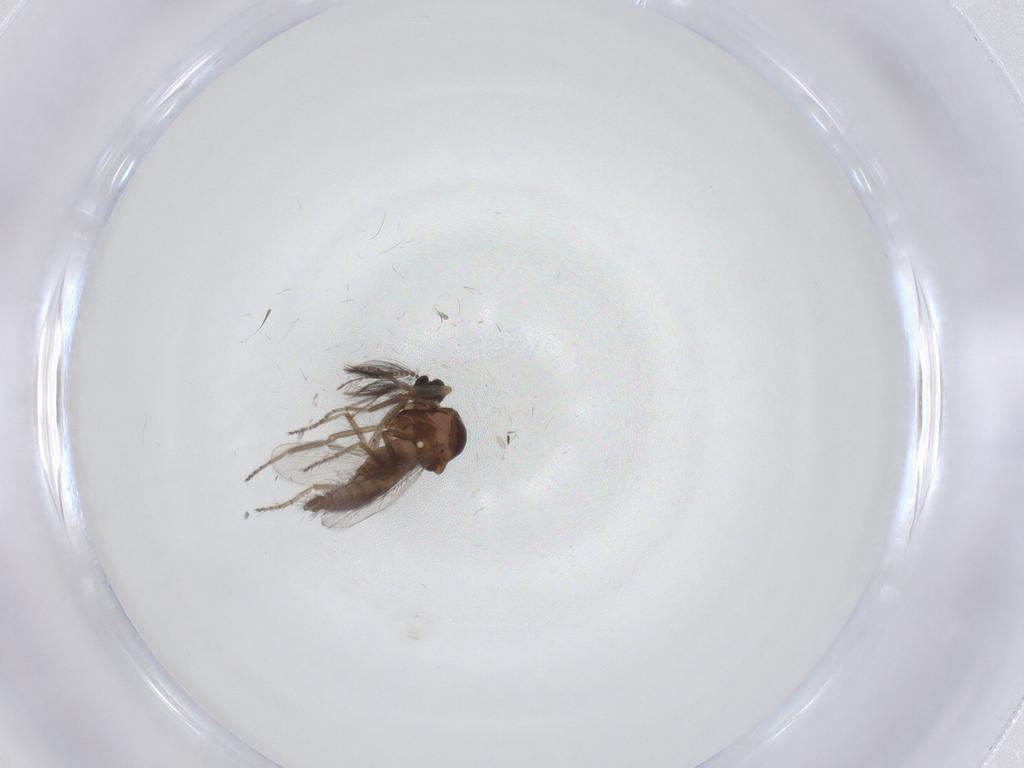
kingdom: Animalia
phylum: Arthropoda
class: Insecta
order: Diptera
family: Ceratopogonidae
